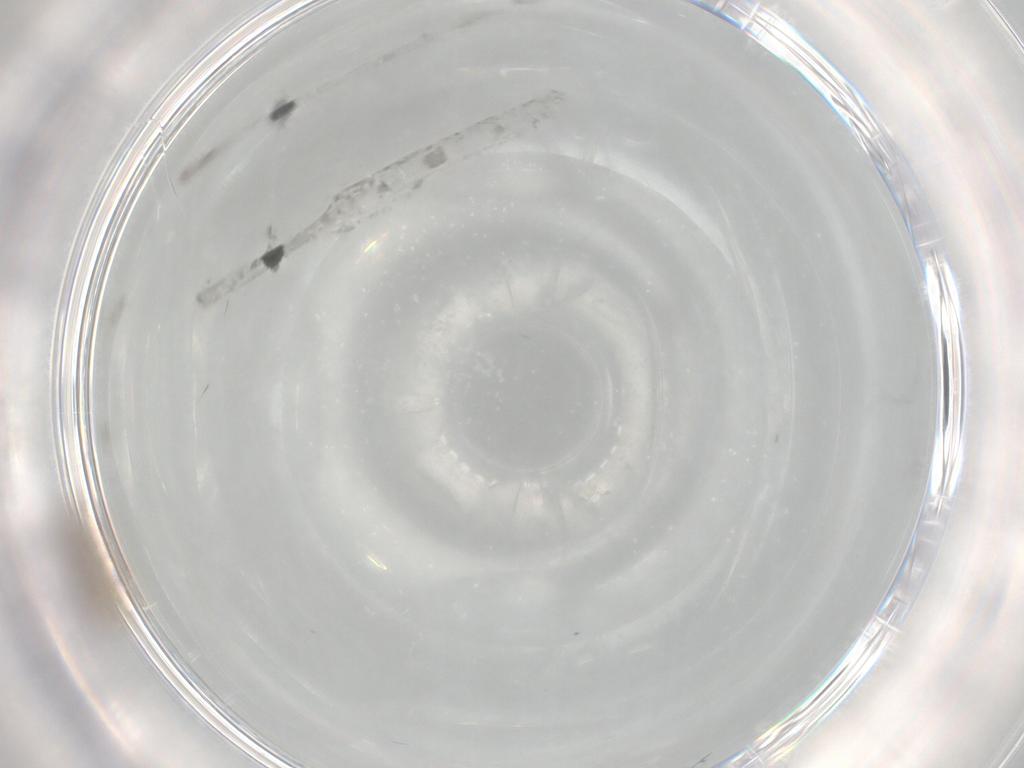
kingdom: Animalia
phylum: Arthropoda
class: Insecta
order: Diptera
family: Chironomidae
